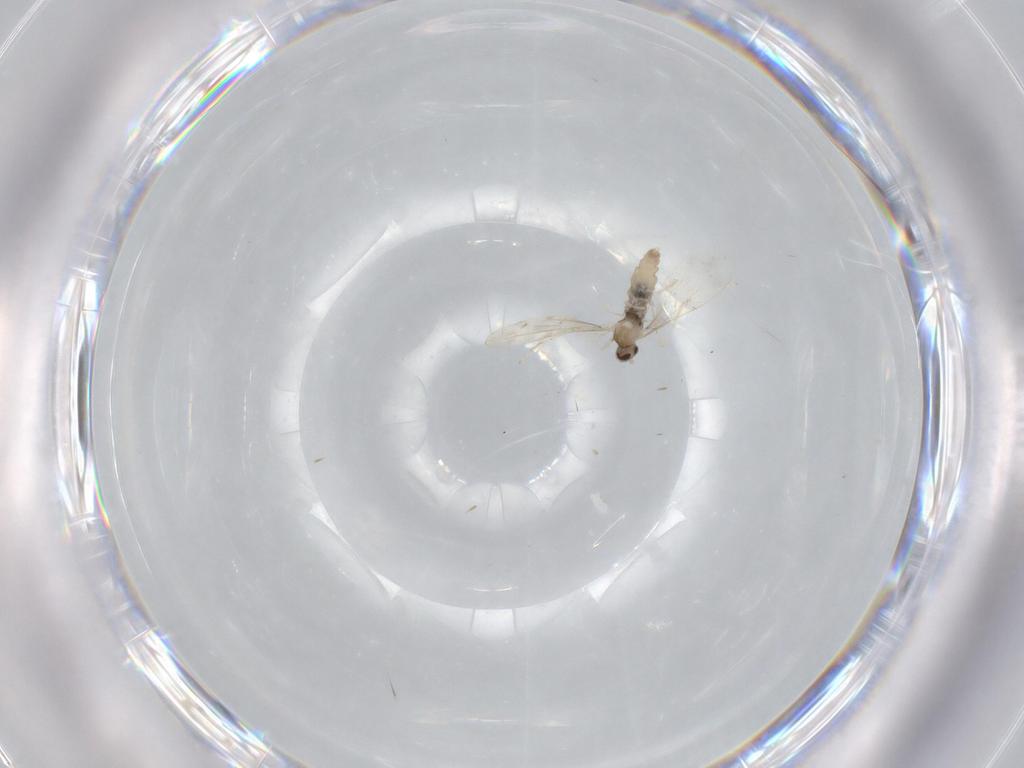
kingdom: Animalia
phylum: Arthropoda
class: Insecta
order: Diptera
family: Cecidomyiidae
